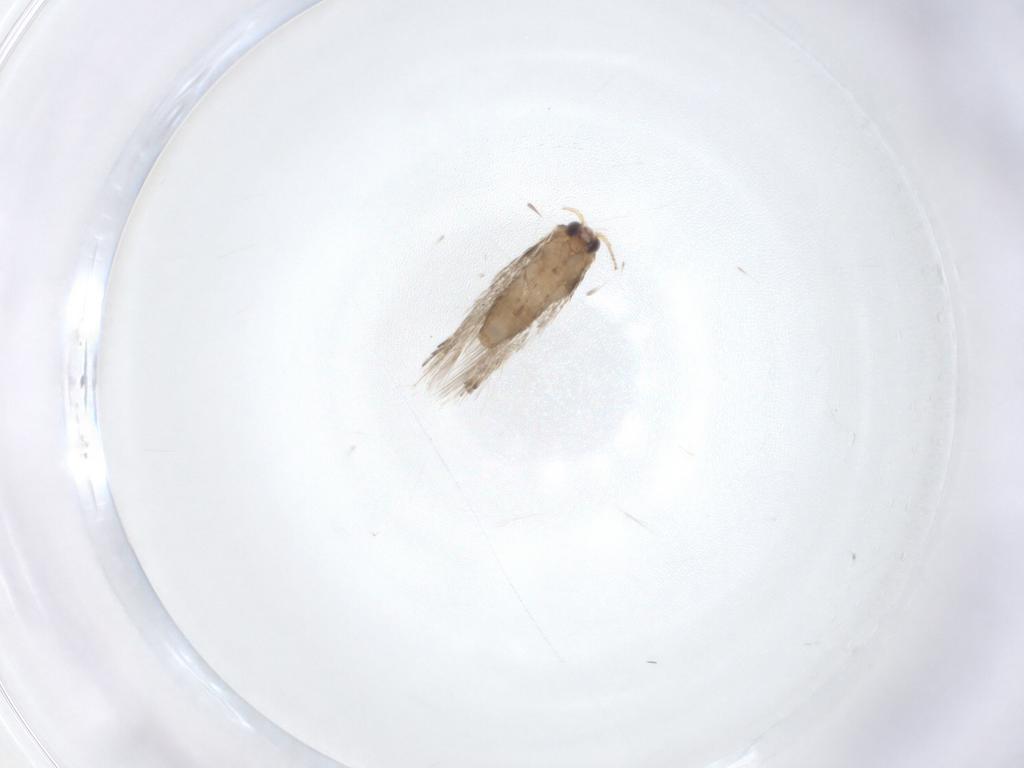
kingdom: Animalia
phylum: Arthropoda
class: Insecta
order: Lepidoptera
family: Nepticulidae
